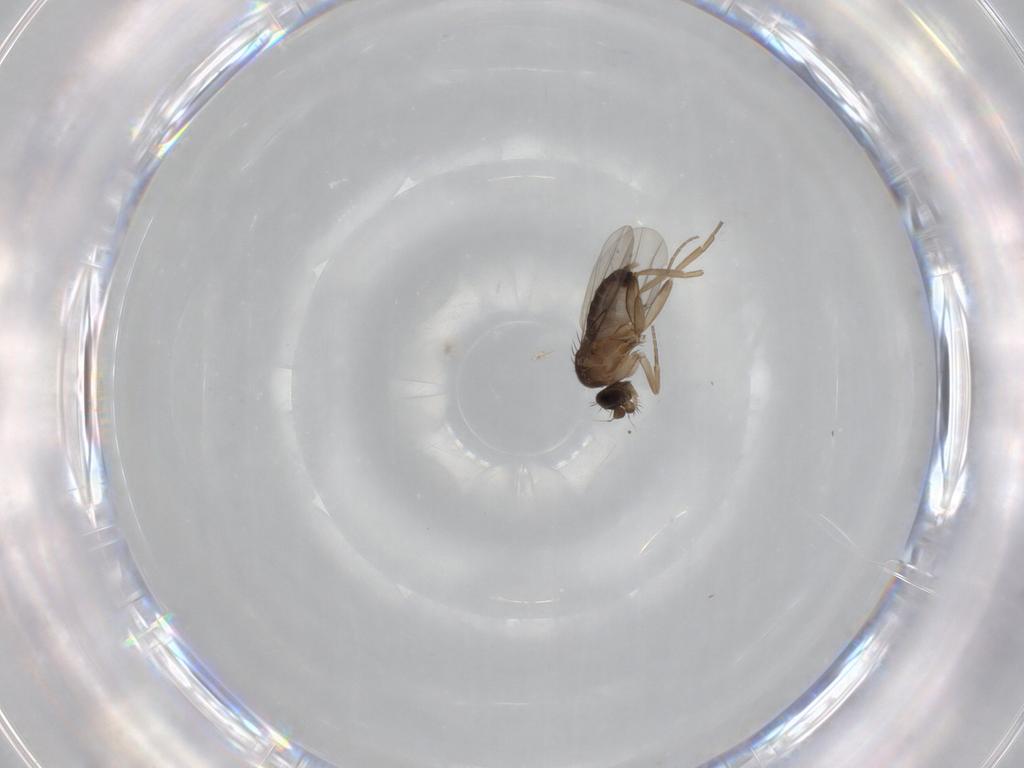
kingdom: Animalia
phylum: Arthropoda
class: Insecta
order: Diptera
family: Phoridae
